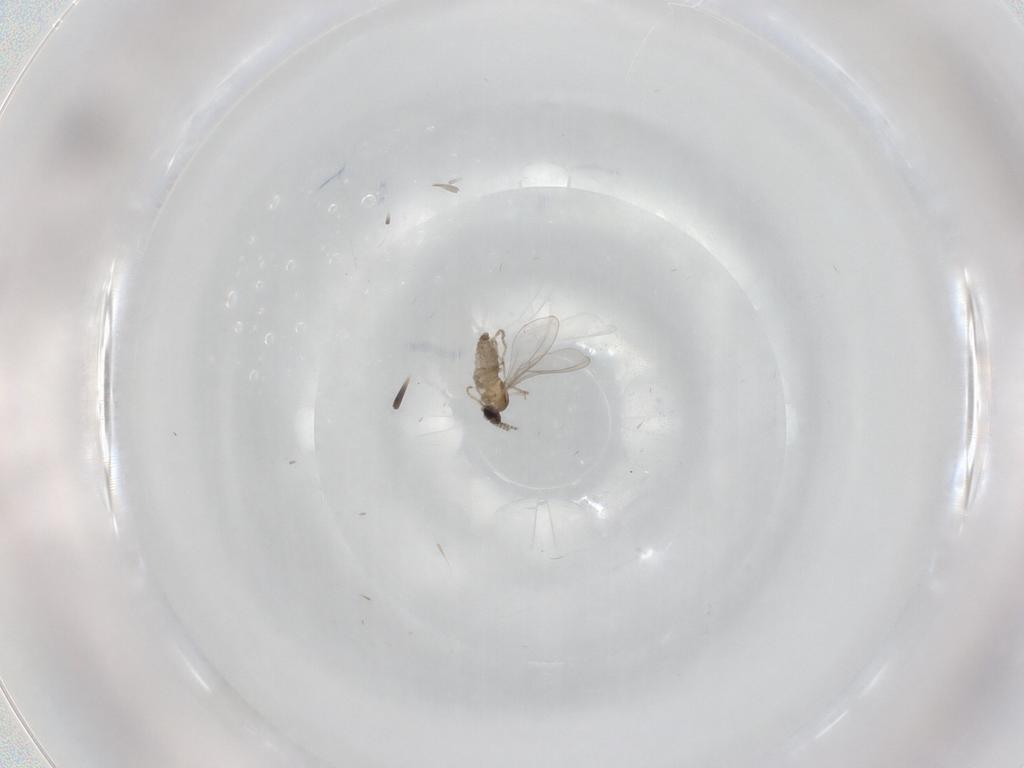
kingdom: Animalia
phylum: Arthropoda
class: Insecta
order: Diptera
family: Cecidomyiidae
